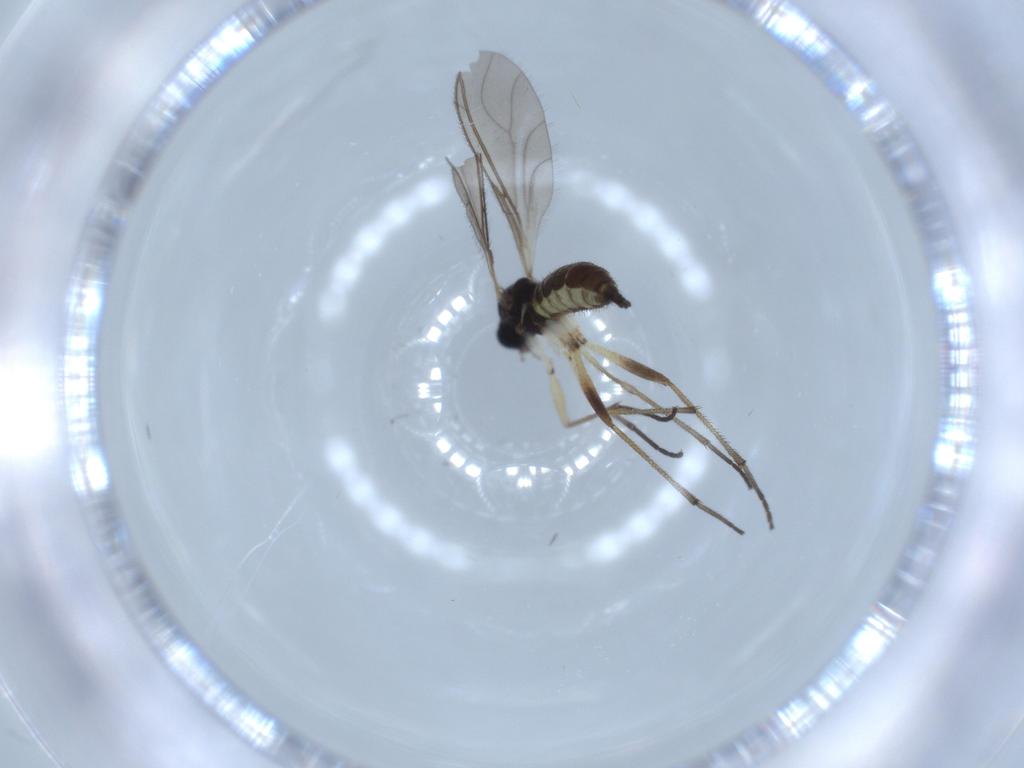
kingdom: Animalia
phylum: Arthropoda
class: Insecta
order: Diptera
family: Sciaridae
